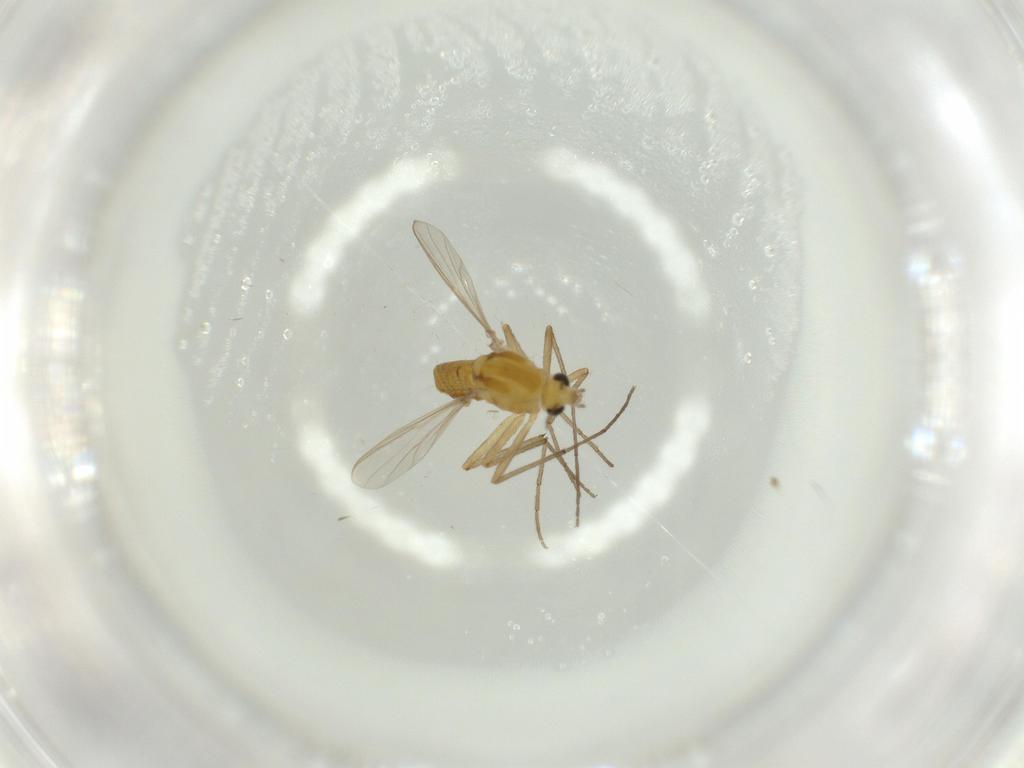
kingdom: Animalia
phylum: Arthropoda
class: Insecta
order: Diptera
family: Chironomidae
